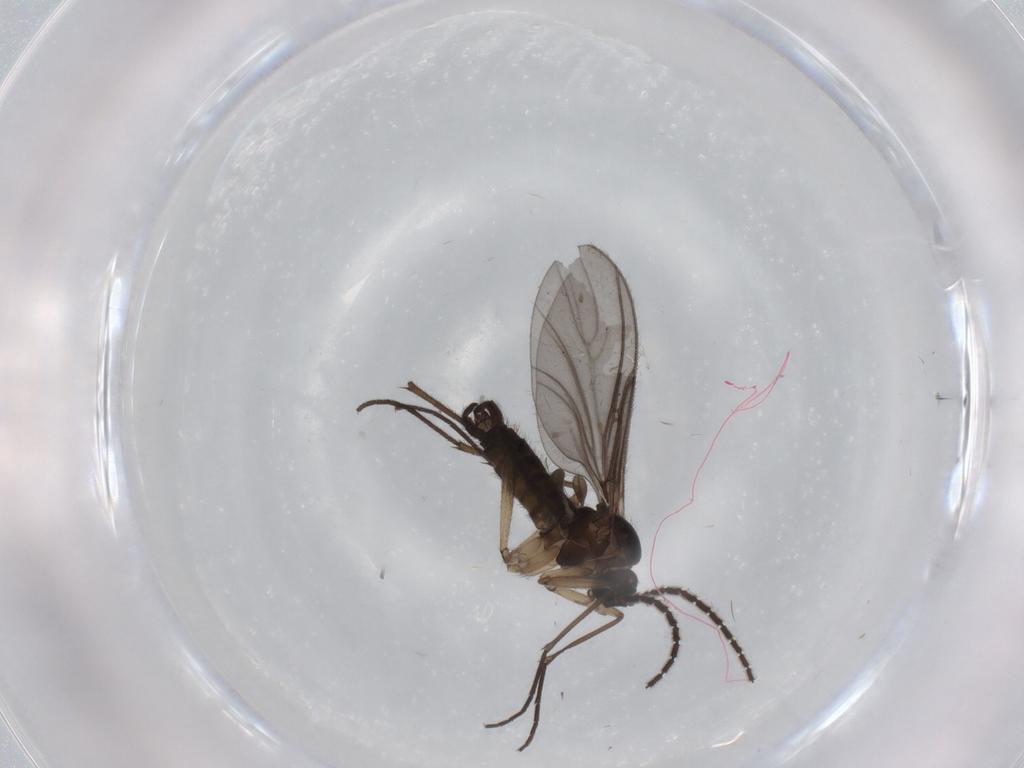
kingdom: Animalia
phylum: Arthropoda
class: Insecta
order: Diptera
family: Sciaridae
